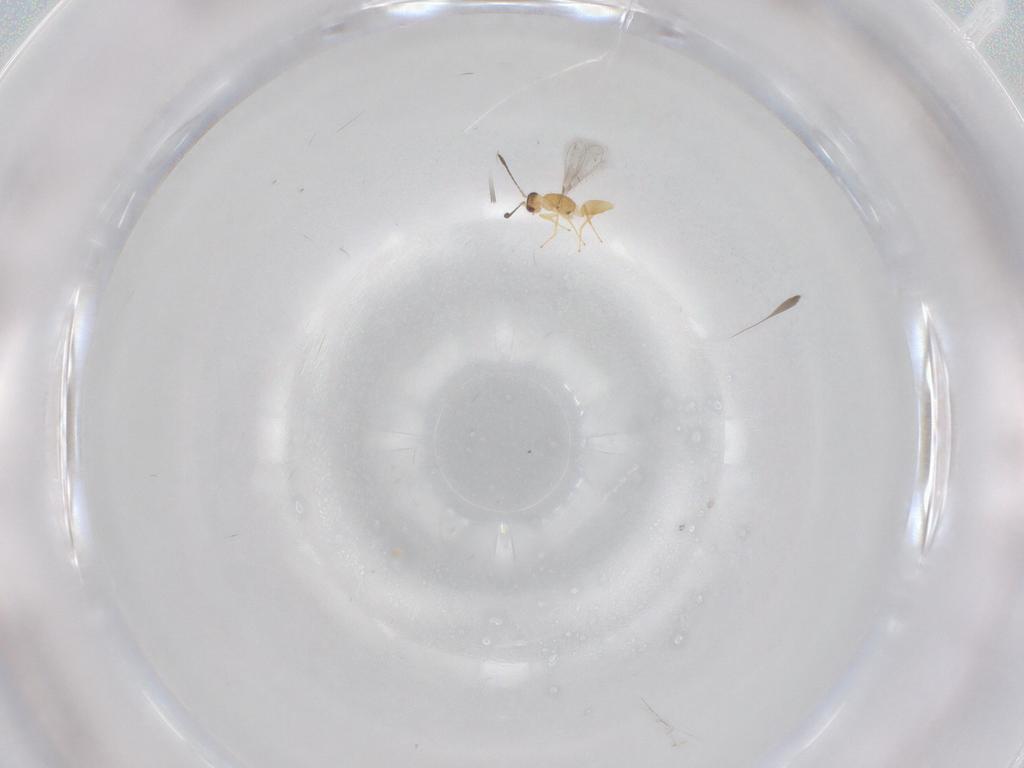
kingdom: Animalia
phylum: Arthropoda
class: Insecta
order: Hymenoptera
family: Mymaridae
